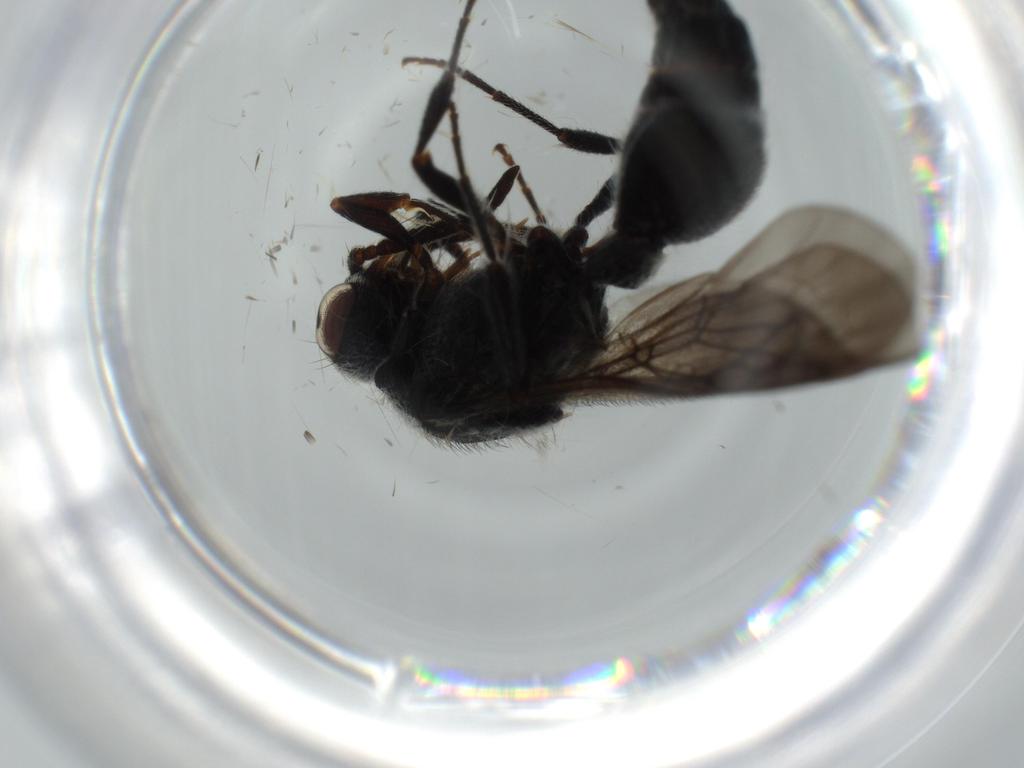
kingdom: Animalia
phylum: Arthropoda
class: Insecta
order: Hymenoptera
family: Mutillidae
